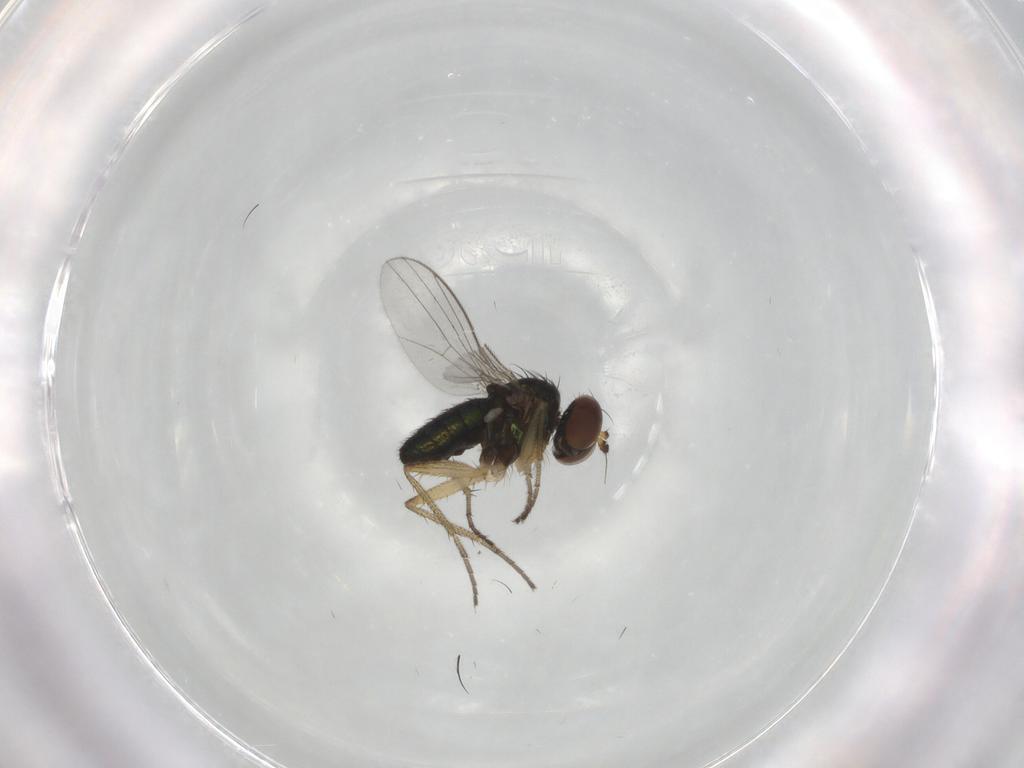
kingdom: Animalia
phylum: Arthropoda
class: Insecta
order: Diptera
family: Dolichopodidae
